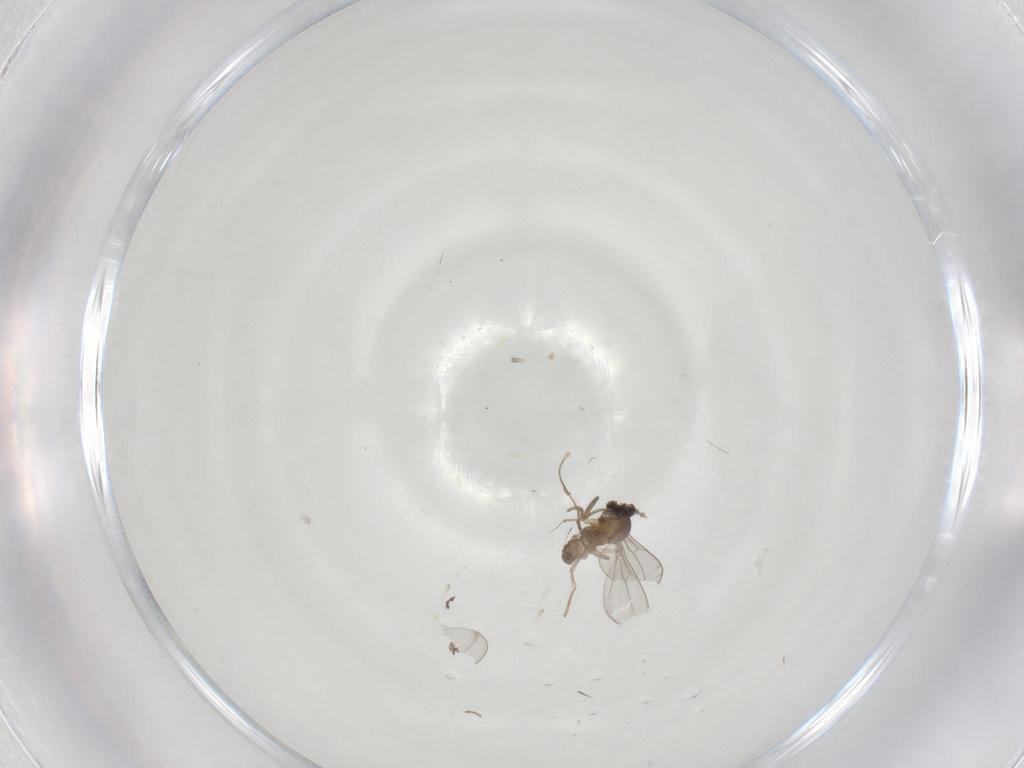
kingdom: Animalia
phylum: Arthropoda
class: Insecta
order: Diptera
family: Cecidomyiidae
